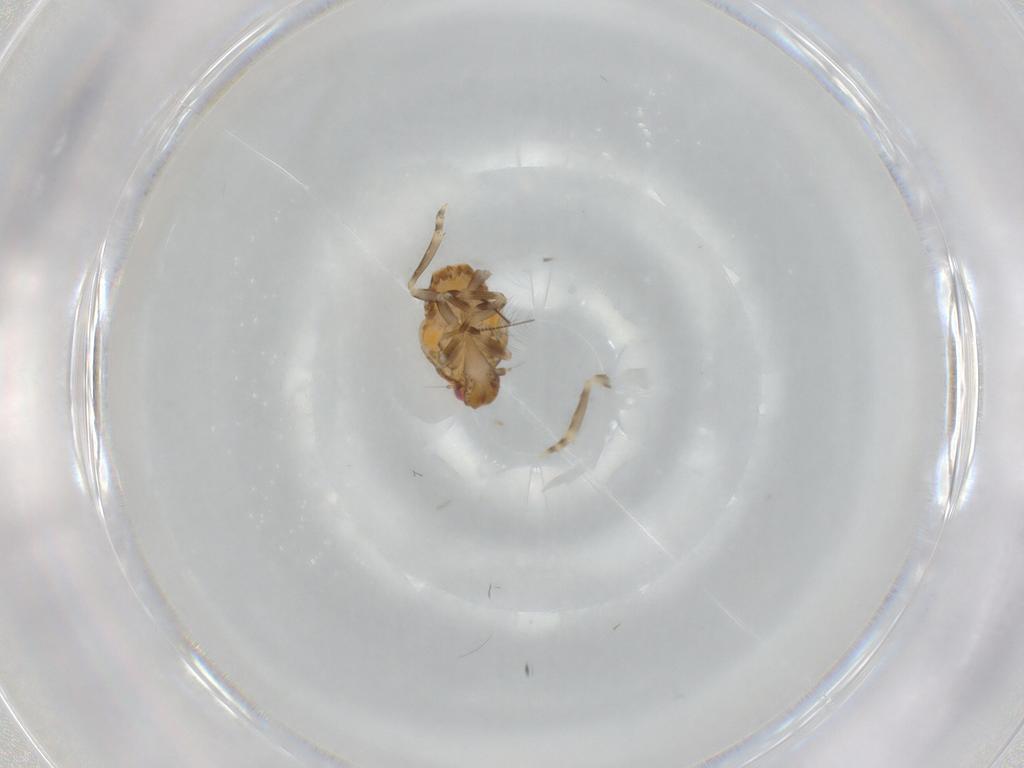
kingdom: Animalia
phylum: Arthropoda
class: Insecta
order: Hemiptera
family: Flatidae
